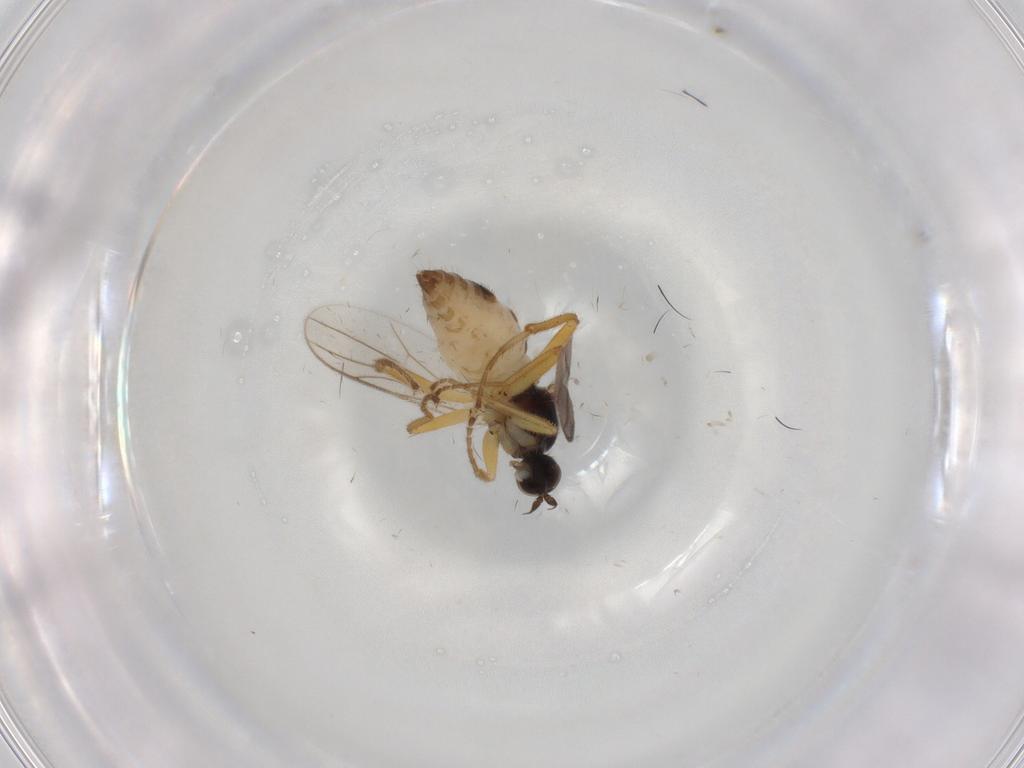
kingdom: Animalia
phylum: Arthropoda
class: Insecta
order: Diptera
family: Hybotidae
